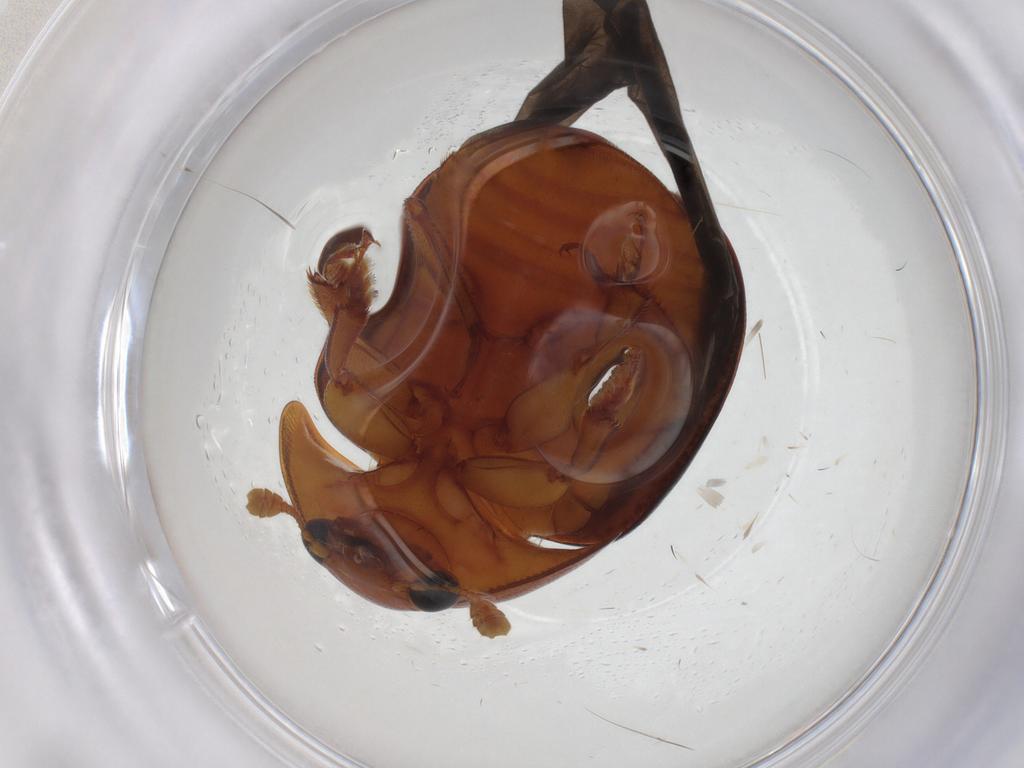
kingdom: Animalia
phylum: Arthropoda
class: Insecta
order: Coleoptera
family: Nitidulidae
